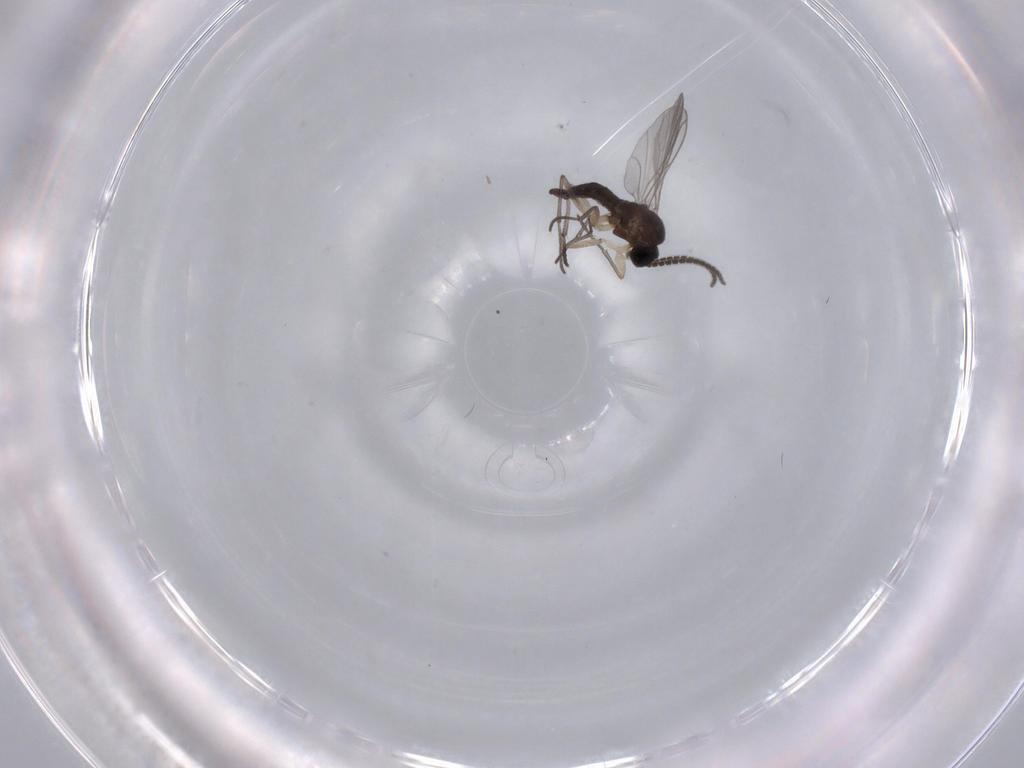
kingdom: Animalia
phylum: Arthropoda
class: Insecta
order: Diptera
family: Sciaridae
